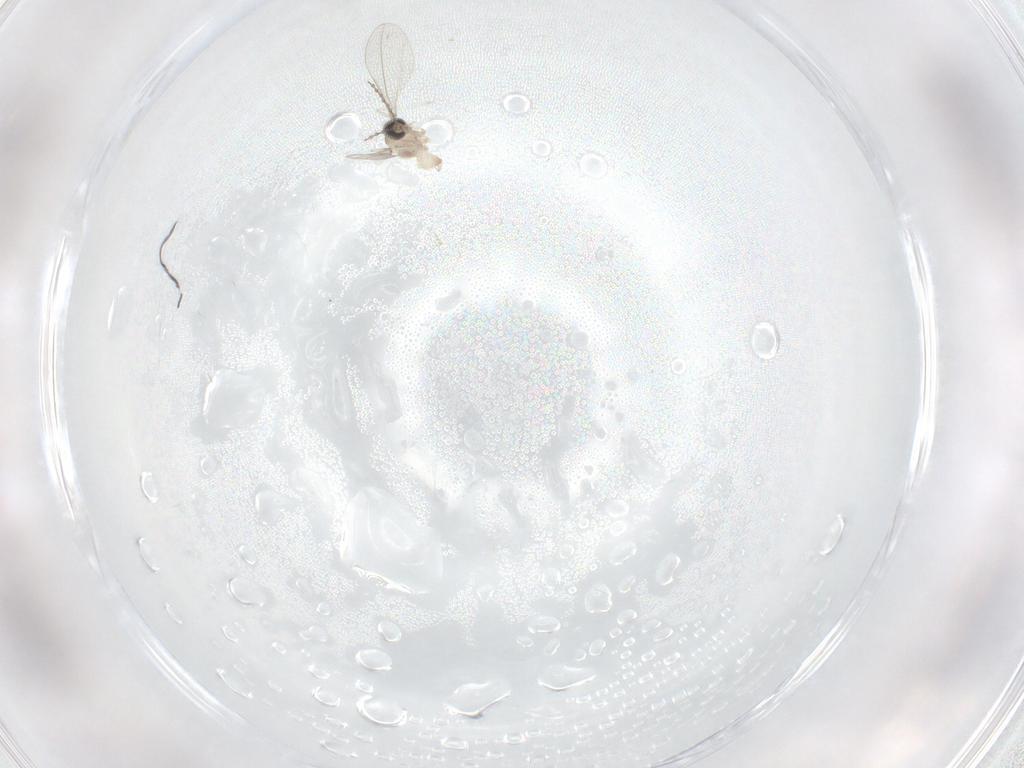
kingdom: Animalia
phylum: Arthropoda
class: Insecta
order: Diptera
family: Cecidomyiidae
